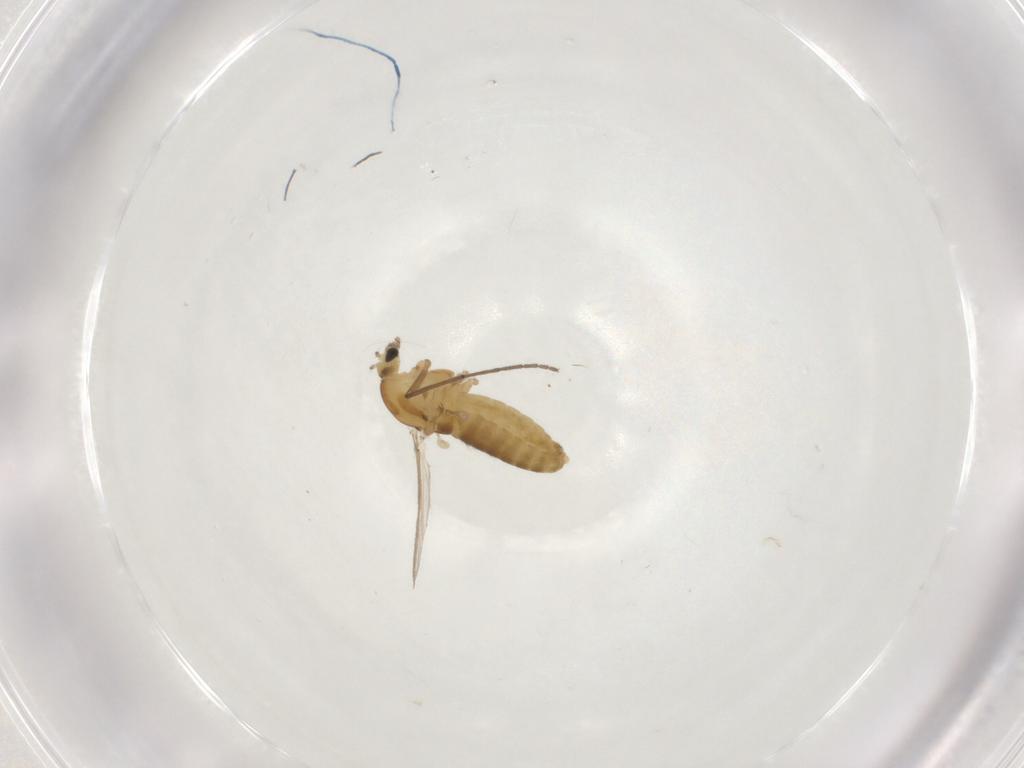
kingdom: Animalia
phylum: Arthropoda
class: Insecta
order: Diptera
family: Chironomidae
